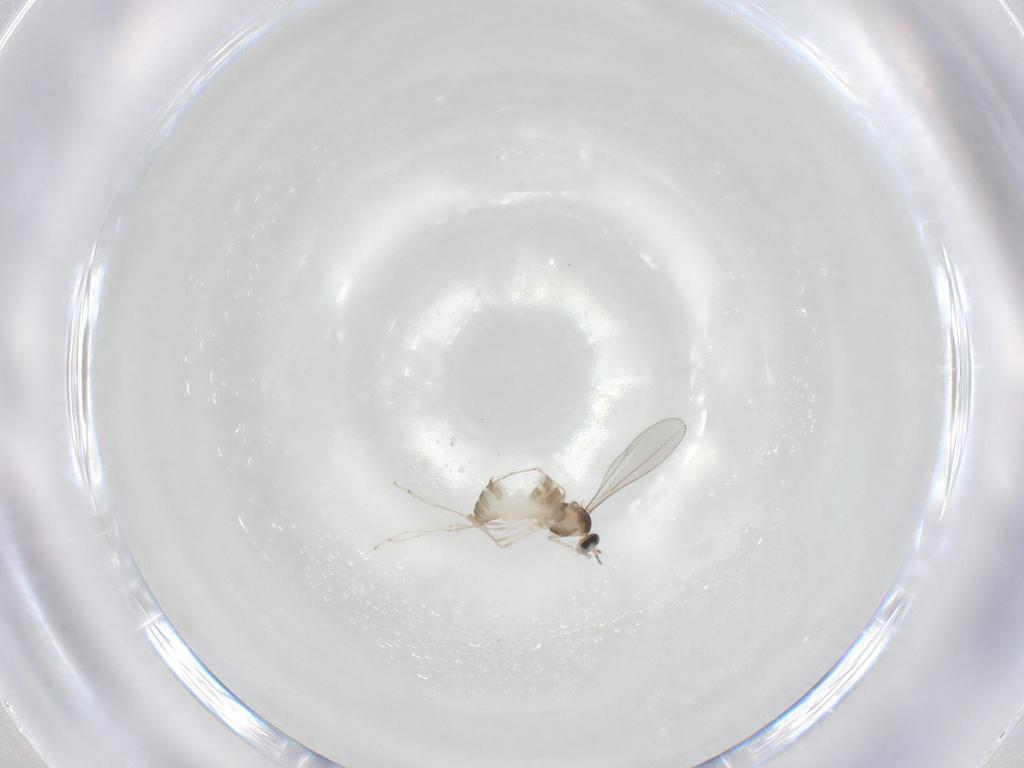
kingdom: Animalia
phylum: Arthropoda
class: Insecta
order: Diptera
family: Cecidomyiidae
